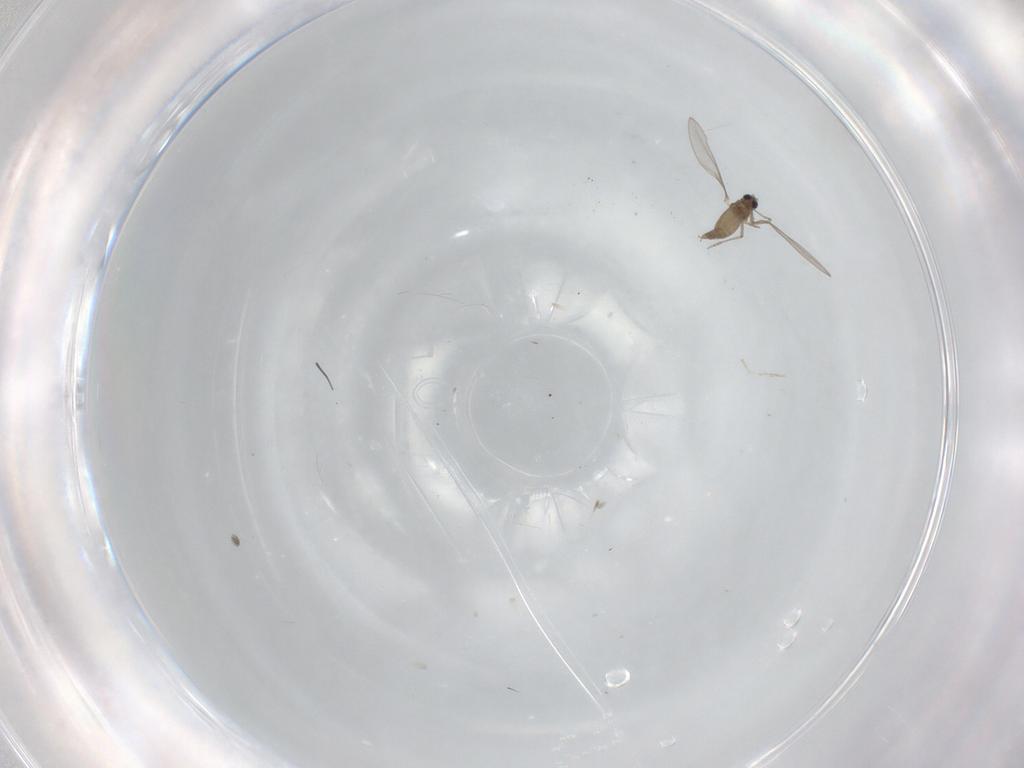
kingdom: Animalia
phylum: Arthropoda
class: Insecta
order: Diptera
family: Cecidomyiidae
